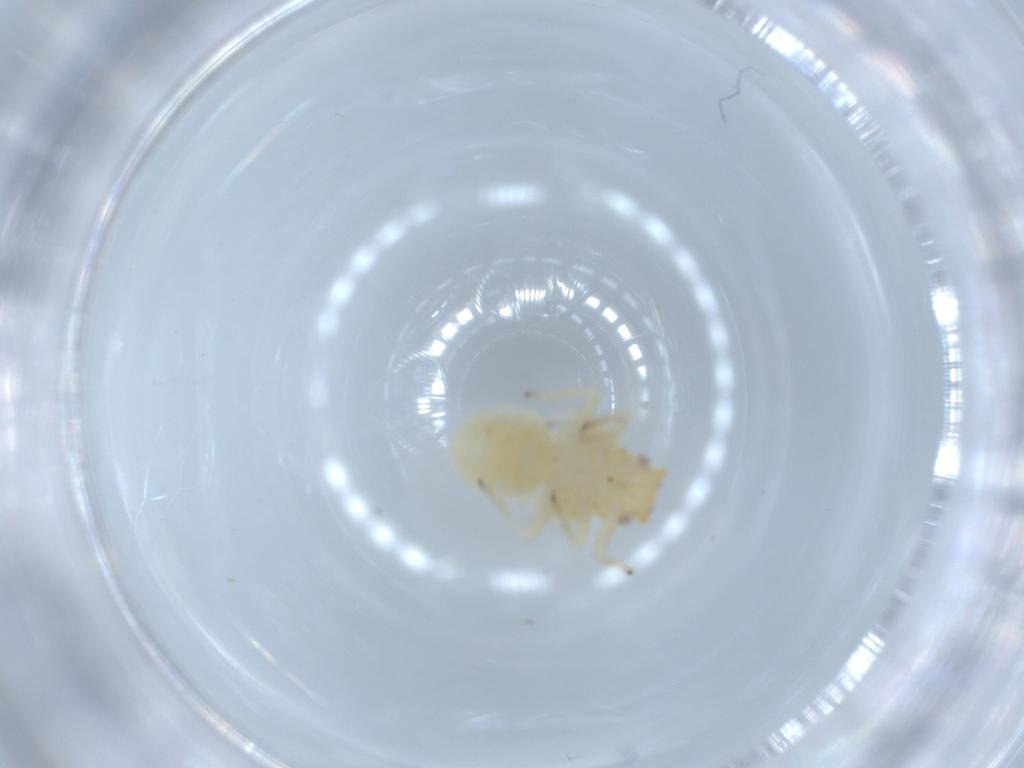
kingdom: Animalia
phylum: Arthropoda
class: Insecta
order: Hemiptera
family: Psyllidae
